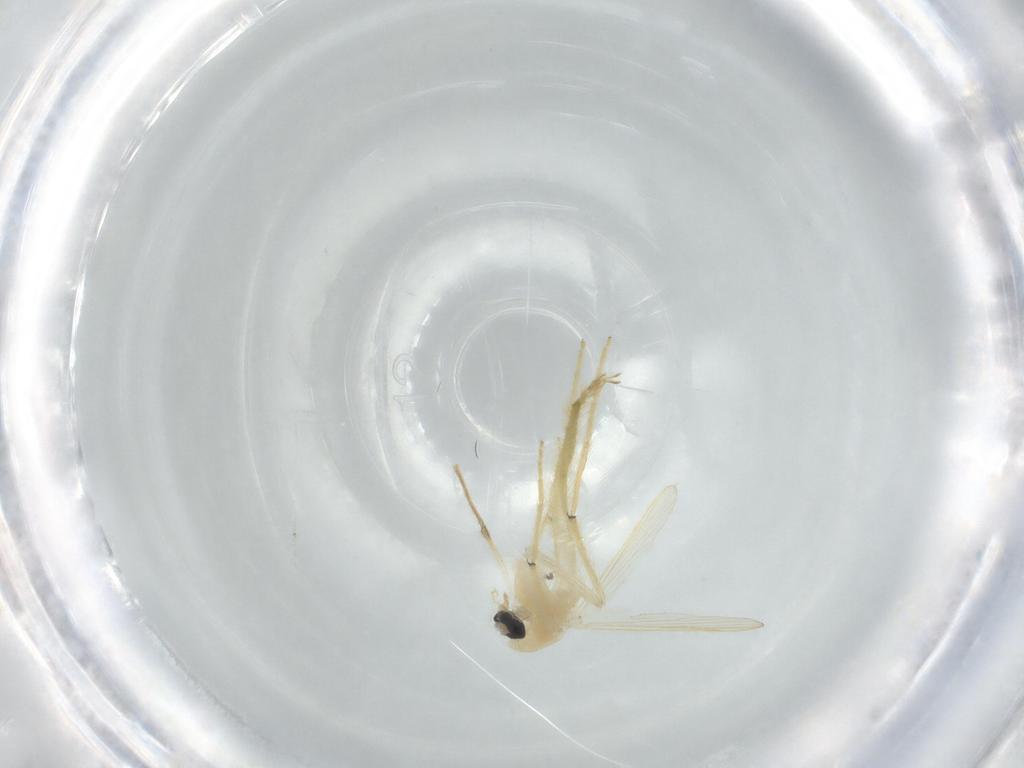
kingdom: Animalia
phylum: Arthropoda
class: Insecta
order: Diptera
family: Chironomidae
